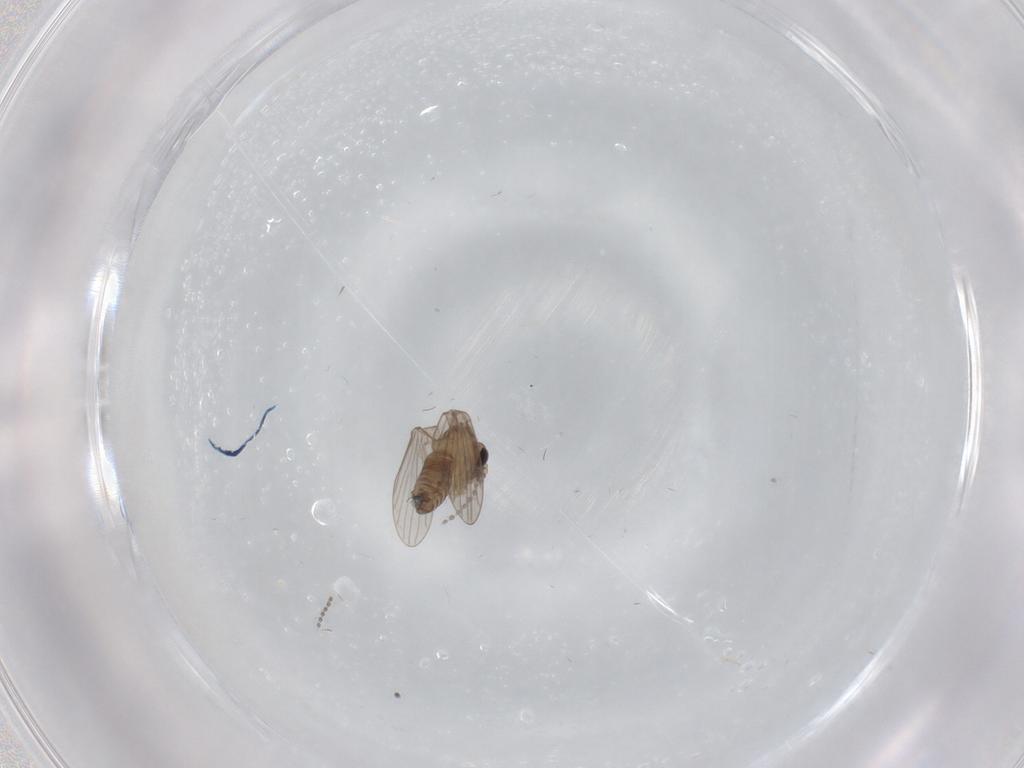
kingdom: Animalia
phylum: Arthropoda
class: Insecta
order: Diptera
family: Cecidomyiidae
